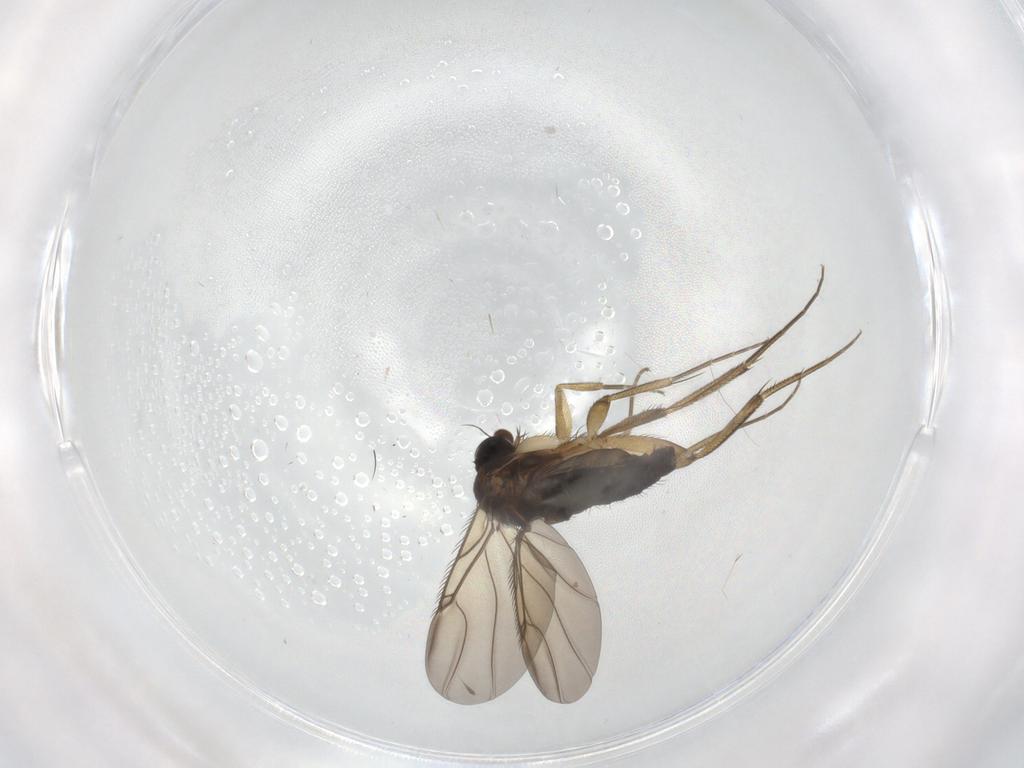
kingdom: Animalia
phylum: Arthropoda
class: Insecta
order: Diptera
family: Phoridae
